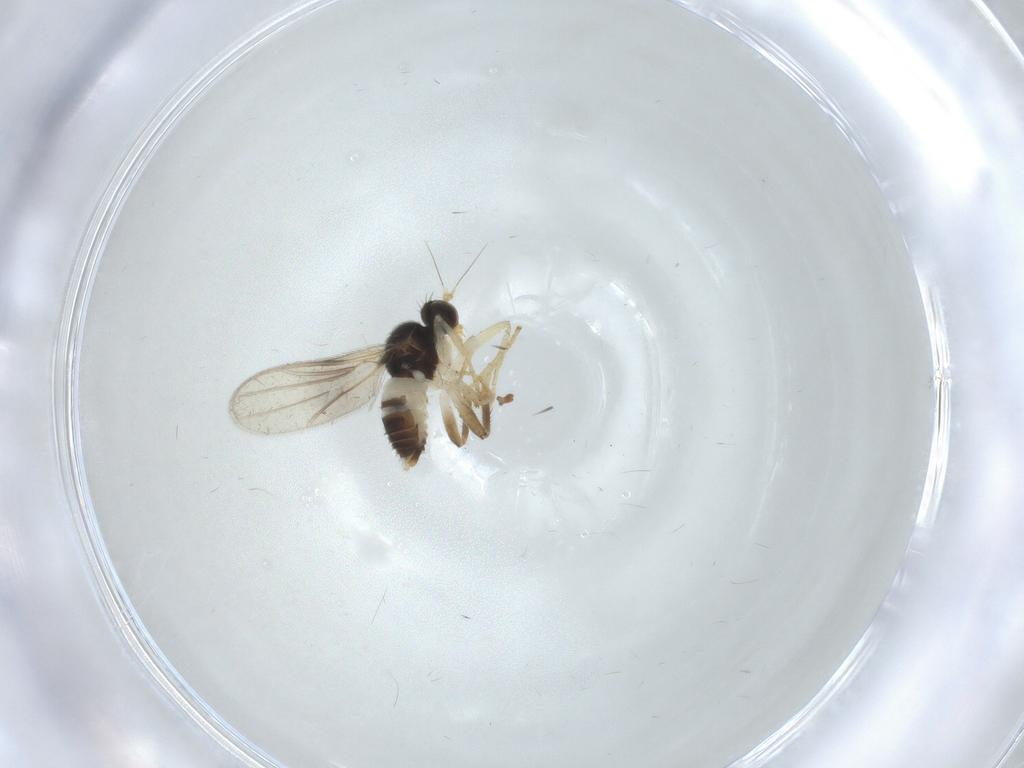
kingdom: Animalia
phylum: Arthropoda
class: Insecta
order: Diptera
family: Hybotidae
